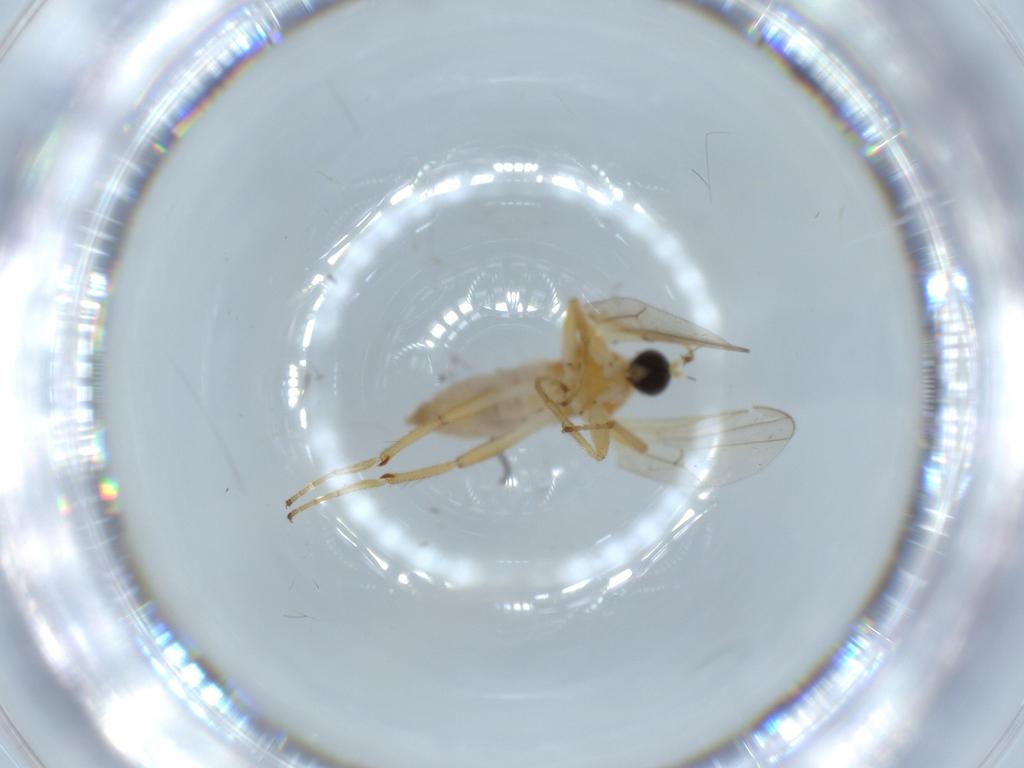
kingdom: Animalia
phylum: Arthropoda
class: Insecta
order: Diptera
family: Hybotidae
